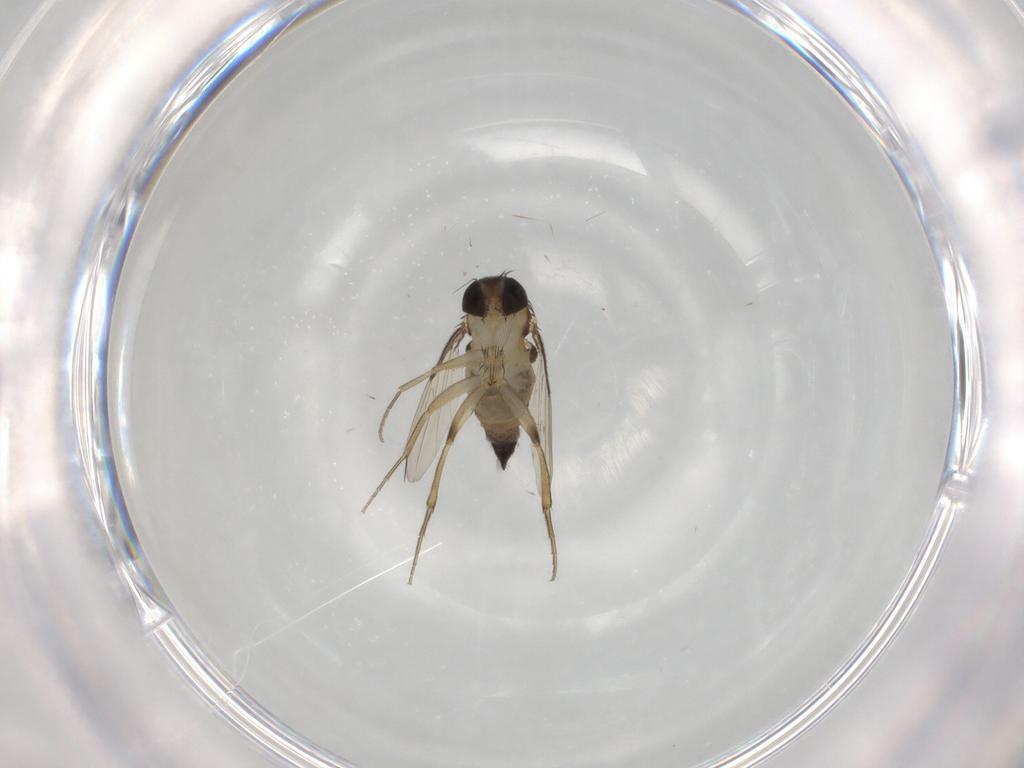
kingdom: Animalia
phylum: Arthropoda
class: Insecta
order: Diptera
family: Phoridae
